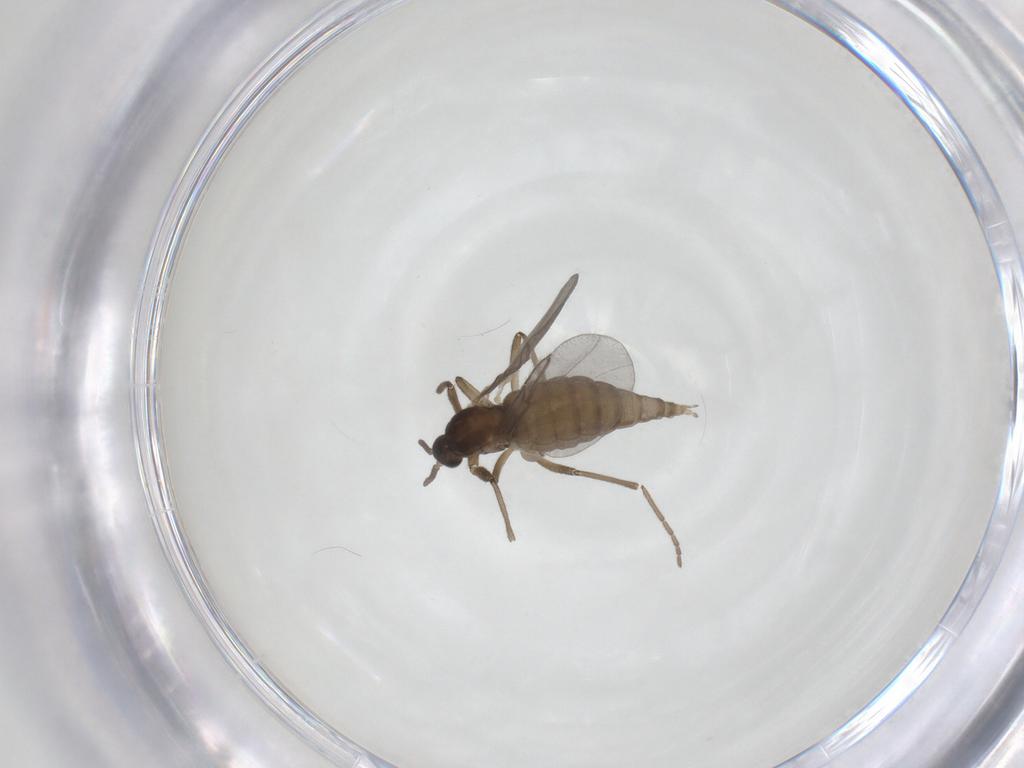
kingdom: Animalia
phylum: Arthropoda
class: Insecta
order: Diptera
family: Cecidomyiidae
